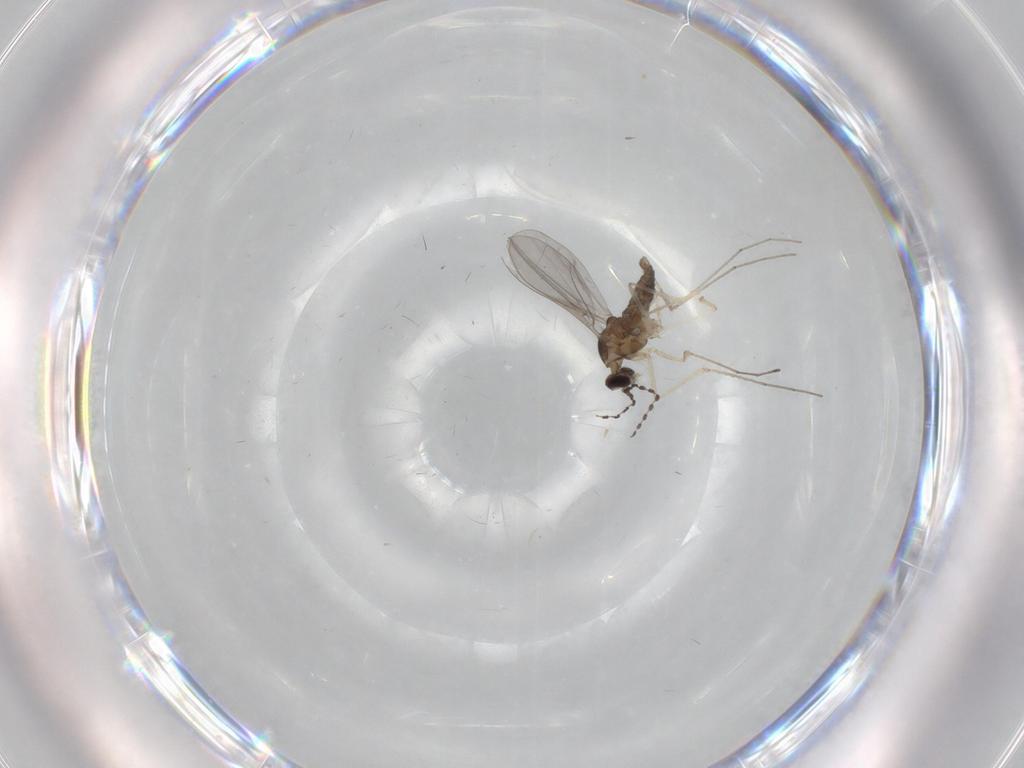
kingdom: Animalia
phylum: Arthropoda
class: Insecta
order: Diptera
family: Cecidomyiidae
